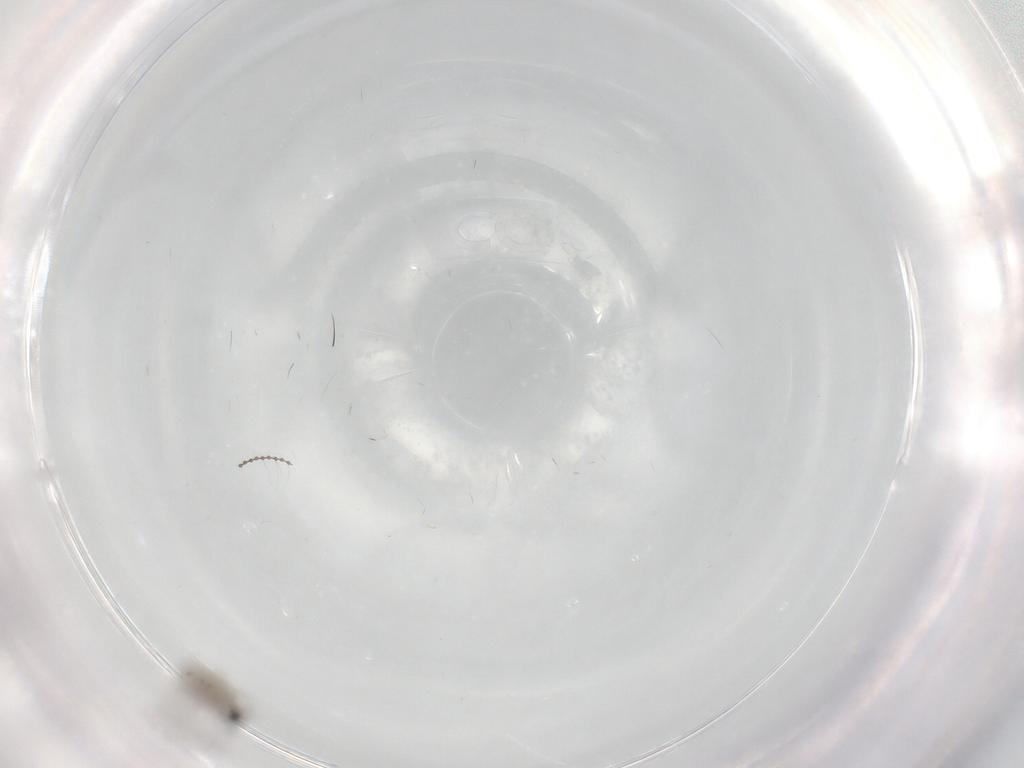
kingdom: Animalia
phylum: Arthropoda
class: Insecta
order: Diptera
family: Cecidomyiidae
